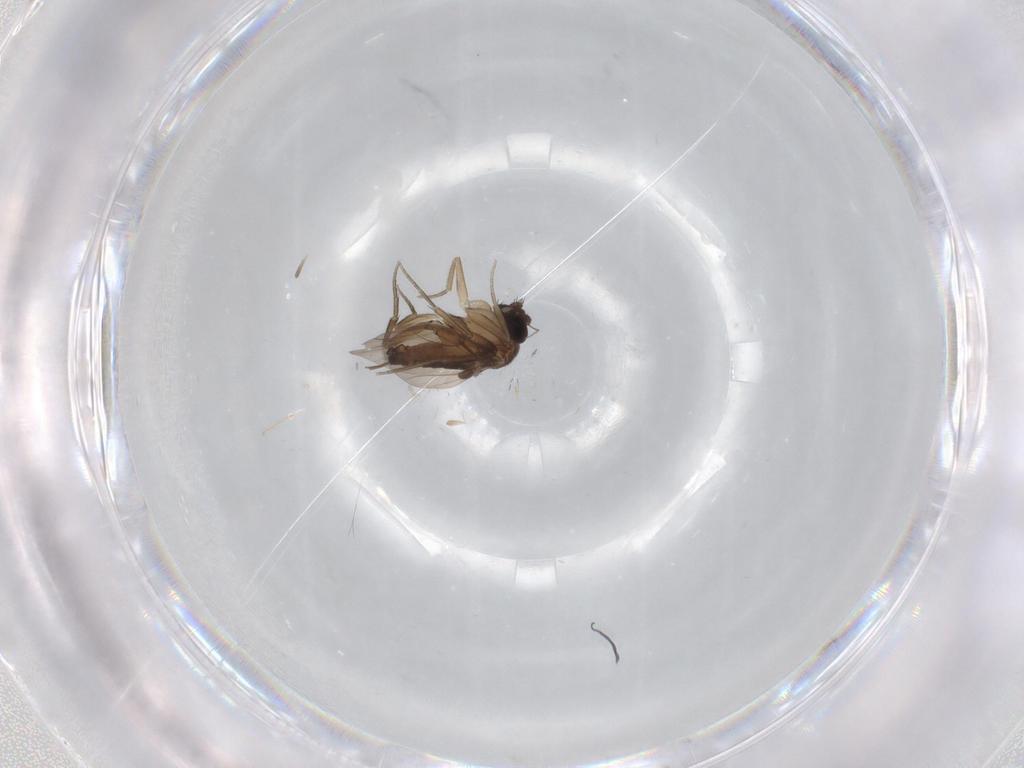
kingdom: Animalia
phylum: Arthropoda
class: Insecta
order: Diptera
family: Phoridae
